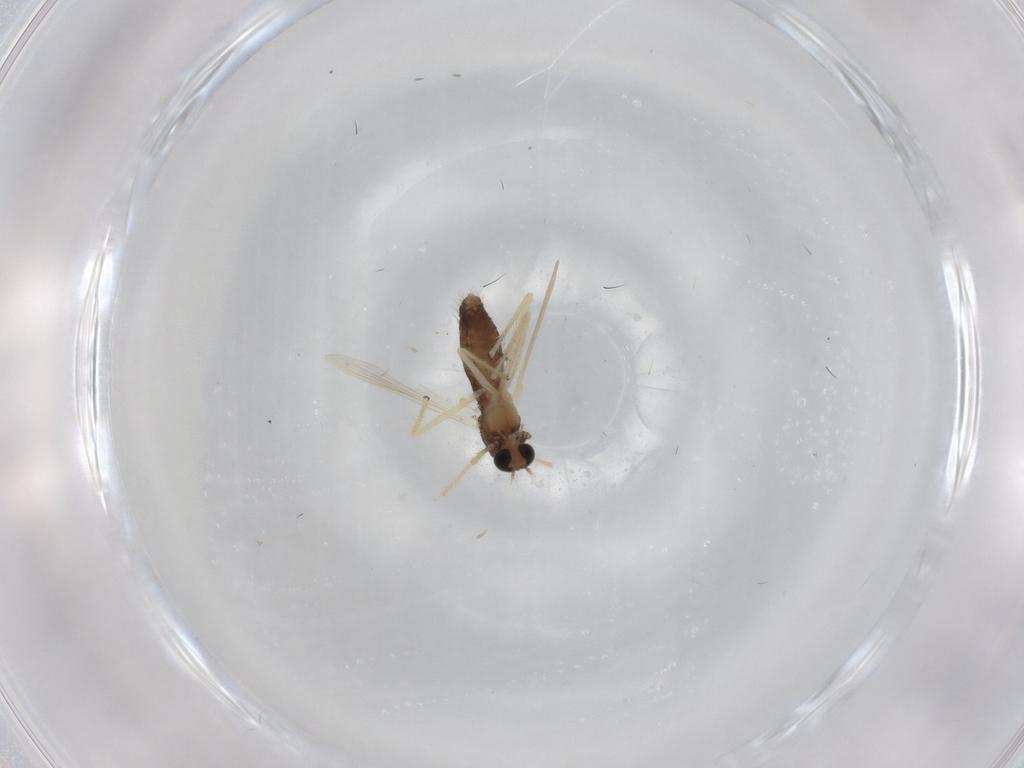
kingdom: Animalia
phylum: Arthropoda
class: Insecta
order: Diptera
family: Chironomidae
